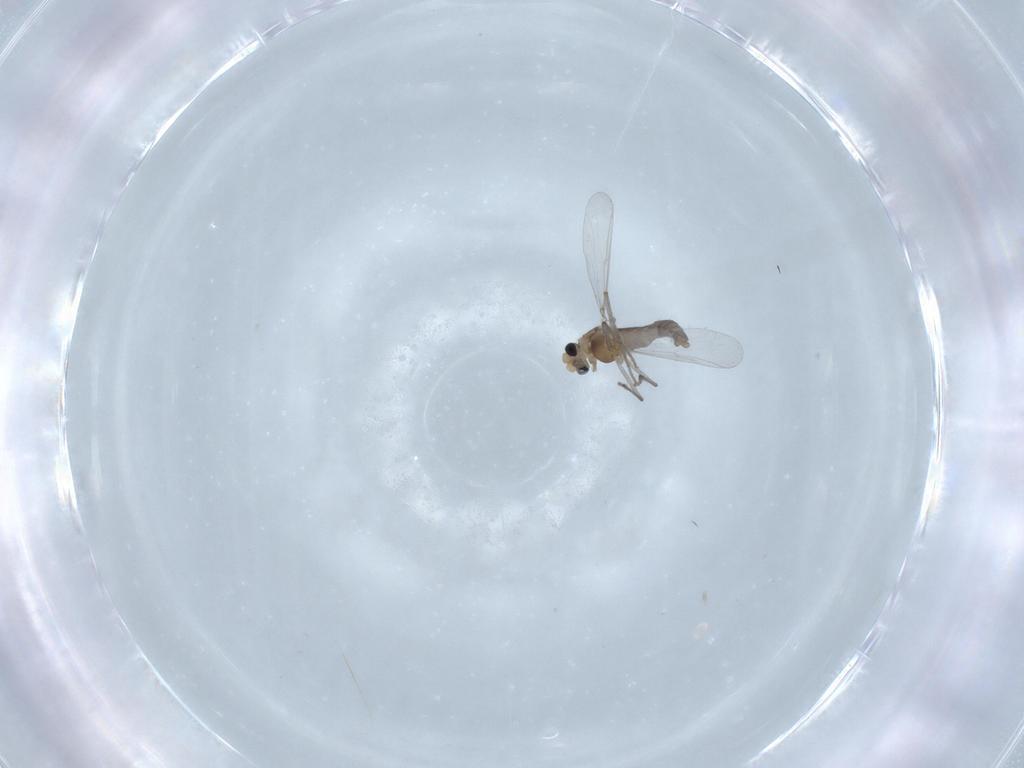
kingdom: Animalia
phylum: Arthropoda
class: Insecta
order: Diptera
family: Chironomidae
